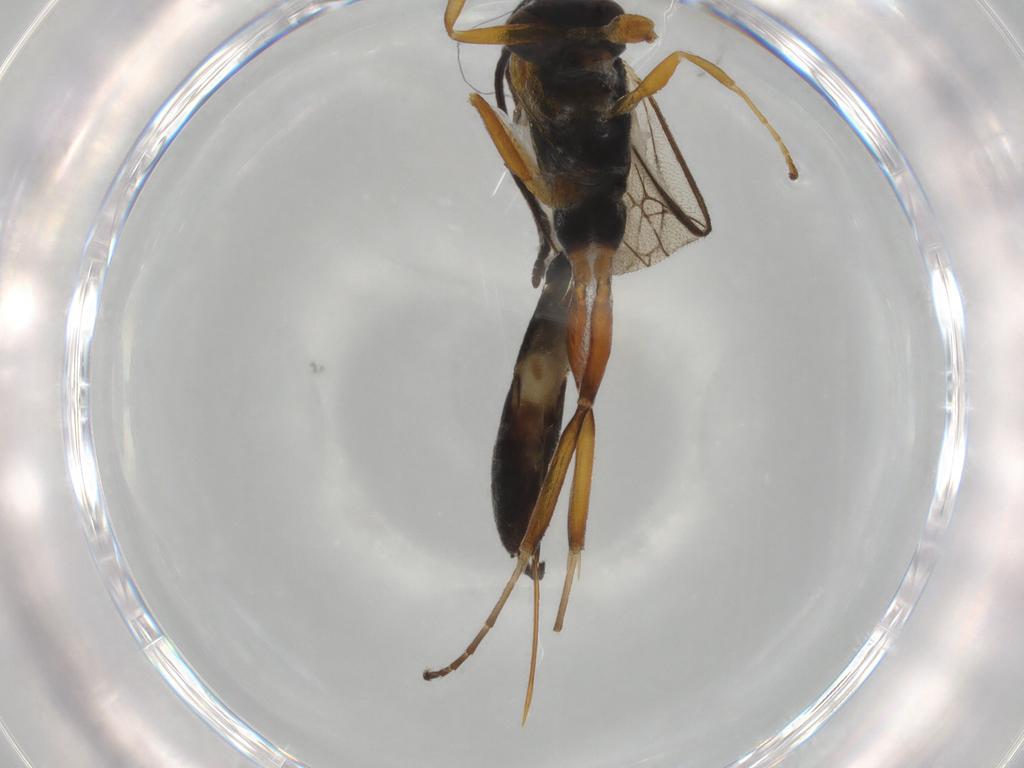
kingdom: Animalia
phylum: Arthropoda
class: Insecta
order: Hymenoptera
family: Ichneumonidae
